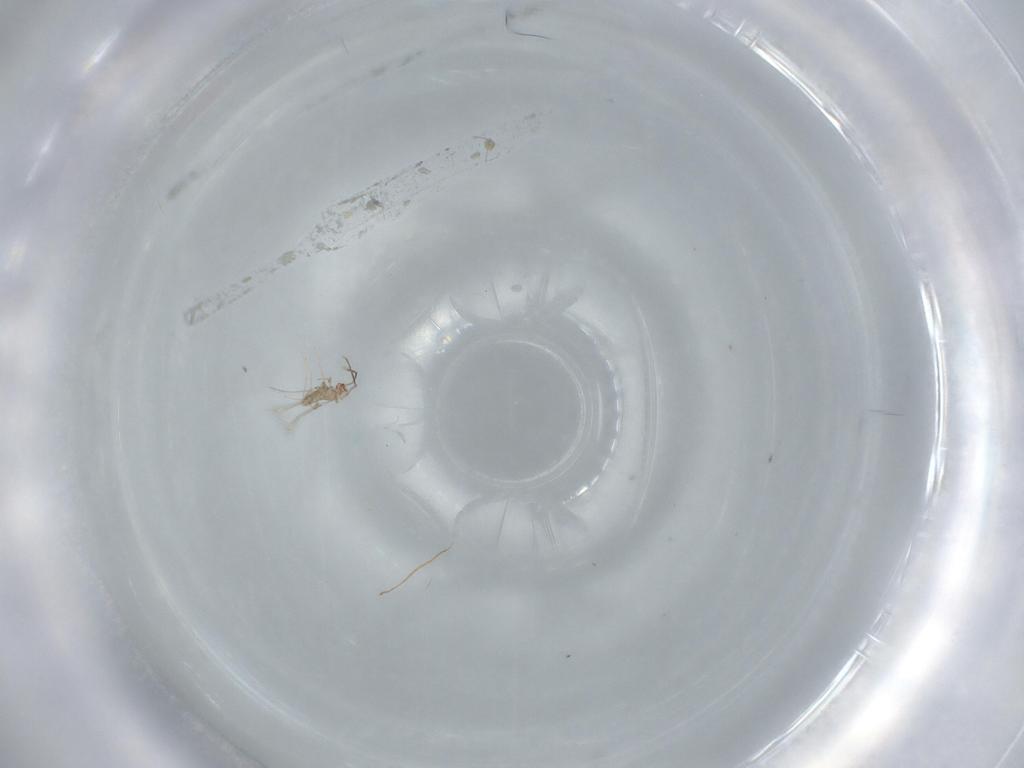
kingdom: Animalia
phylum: Arthropoda
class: Insecta
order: Hymenoptera
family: Mymaridae
